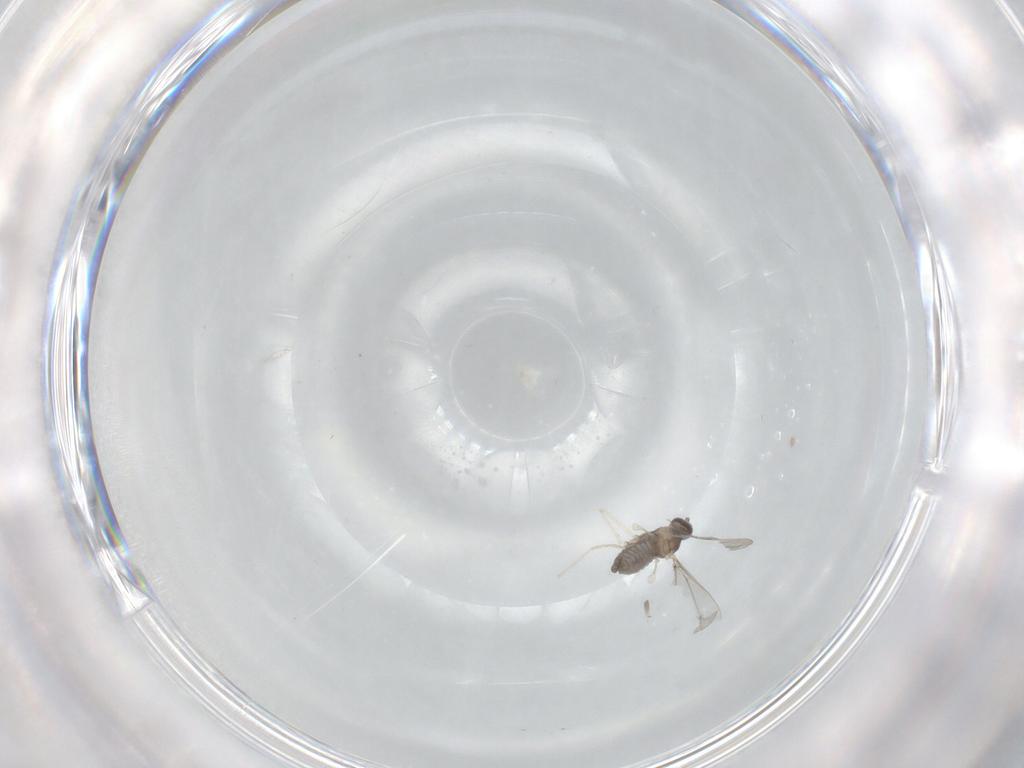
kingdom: Animalia
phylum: Arthropoda
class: Insecta
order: Diptera
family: Cecidomyiidae
